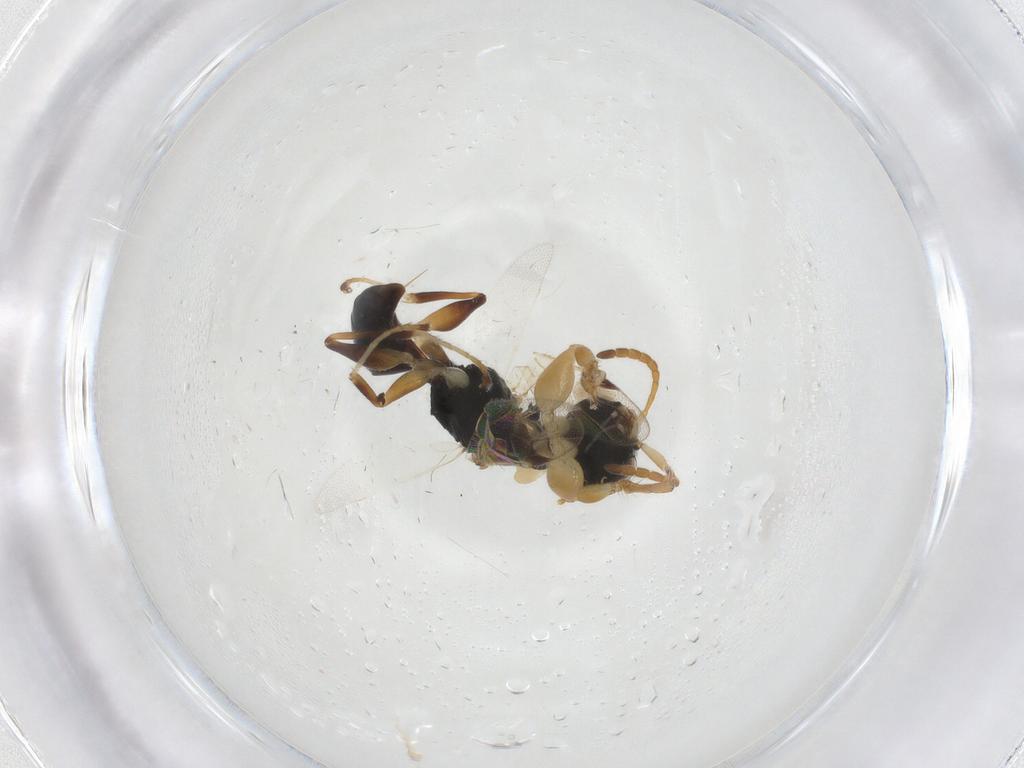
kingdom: Animalia
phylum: Arthropoda
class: Insecta
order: Hymenoptera
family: Dryinidae
